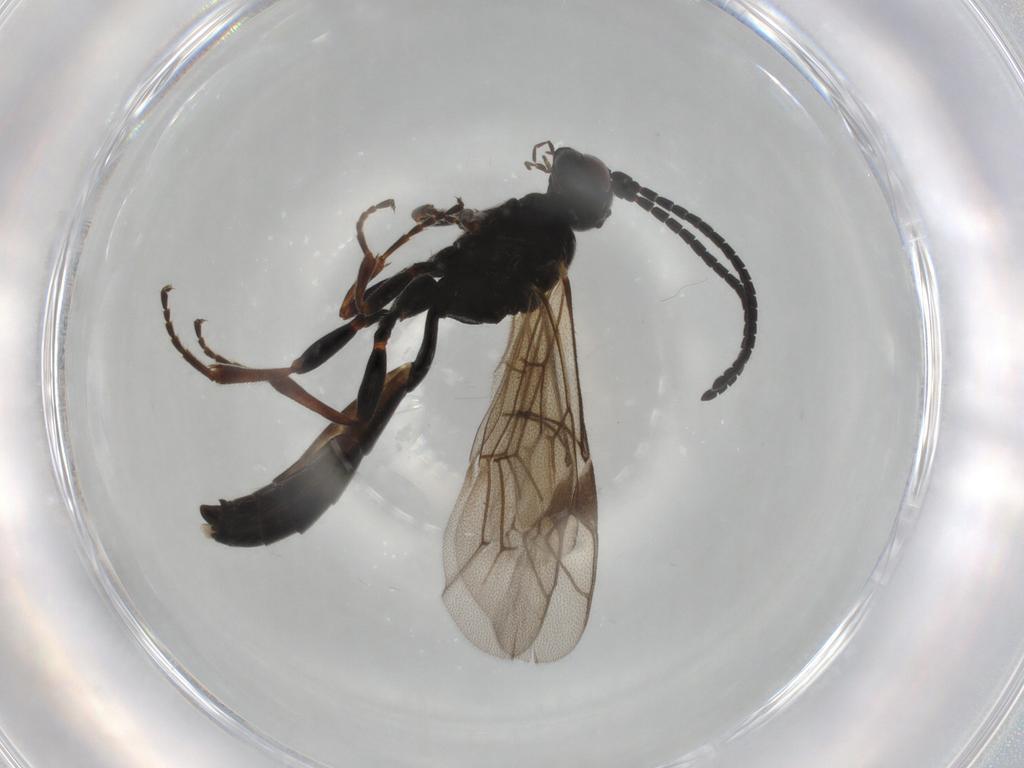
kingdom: Animalia
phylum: Arthropoda
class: Insecta
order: Hymenoptera
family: Ichneumonidae
